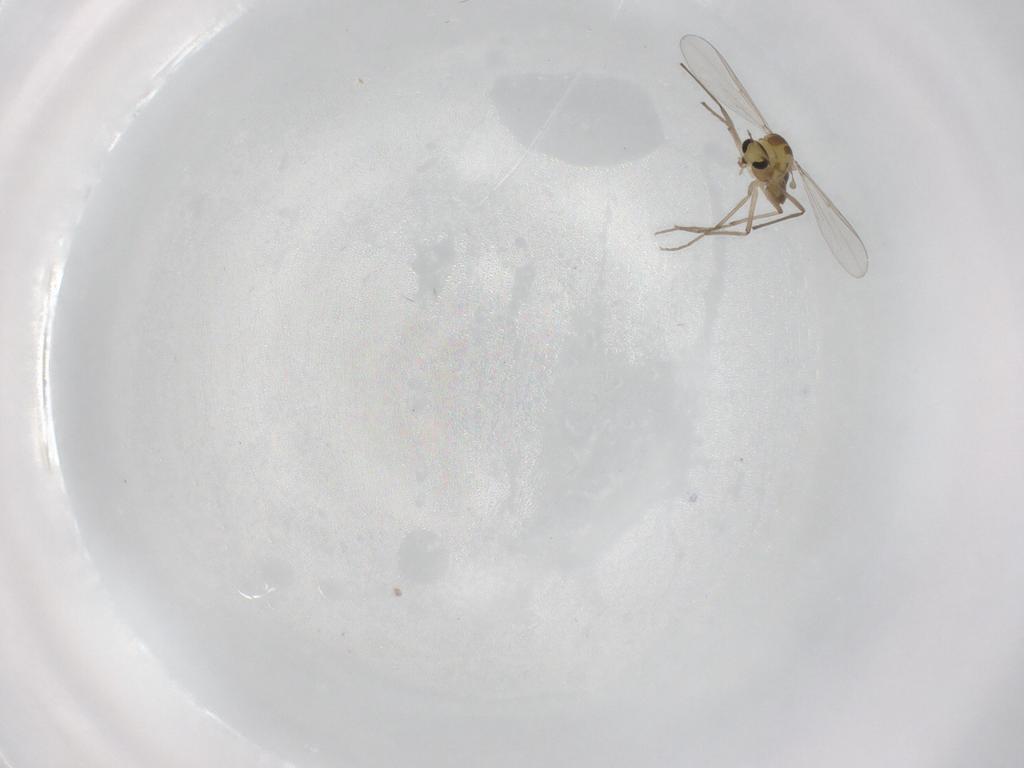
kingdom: Animalia
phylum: Arthropoda
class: Insecta
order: Diptera
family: Chironomidae
